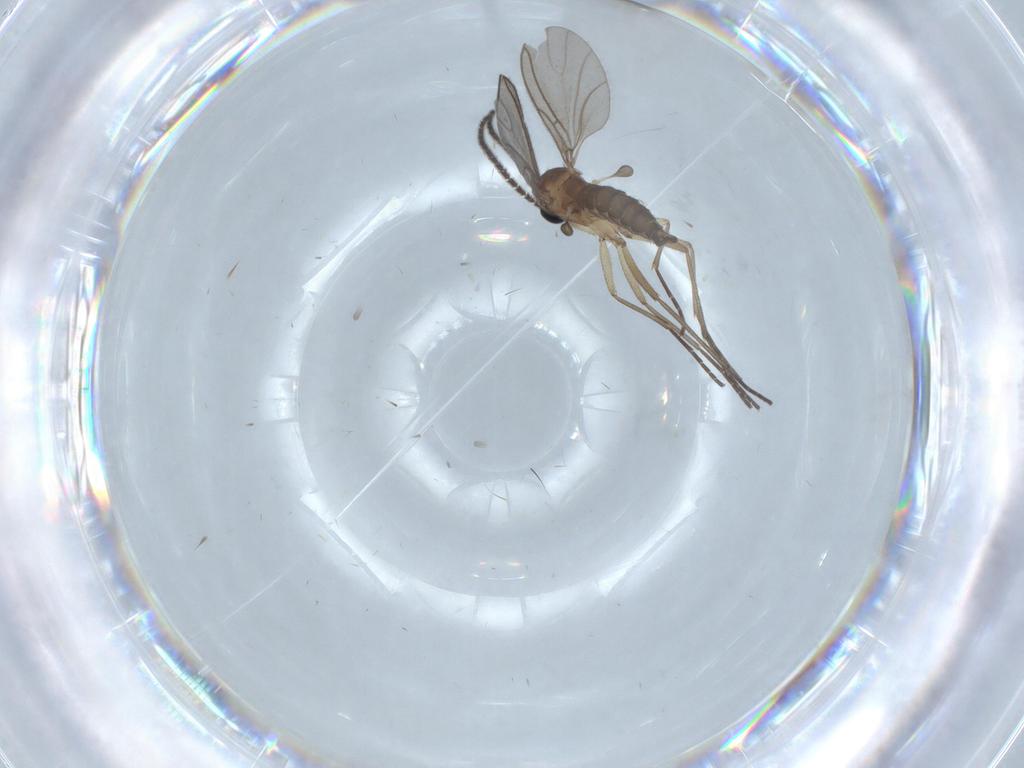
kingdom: Animalia
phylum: Arthropoda
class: Insecta
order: Diptera
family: Sciaridae
